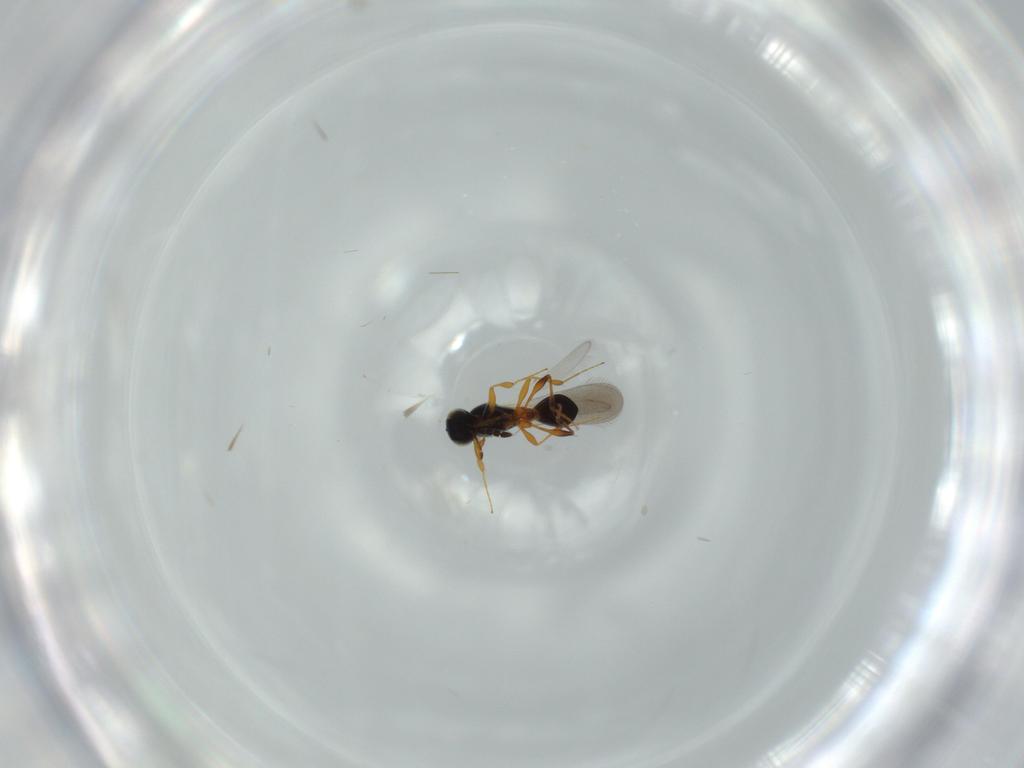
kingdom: Animalia
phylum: Arthropoda
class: Insecta
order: Hymenoptera
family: Platygastridae
